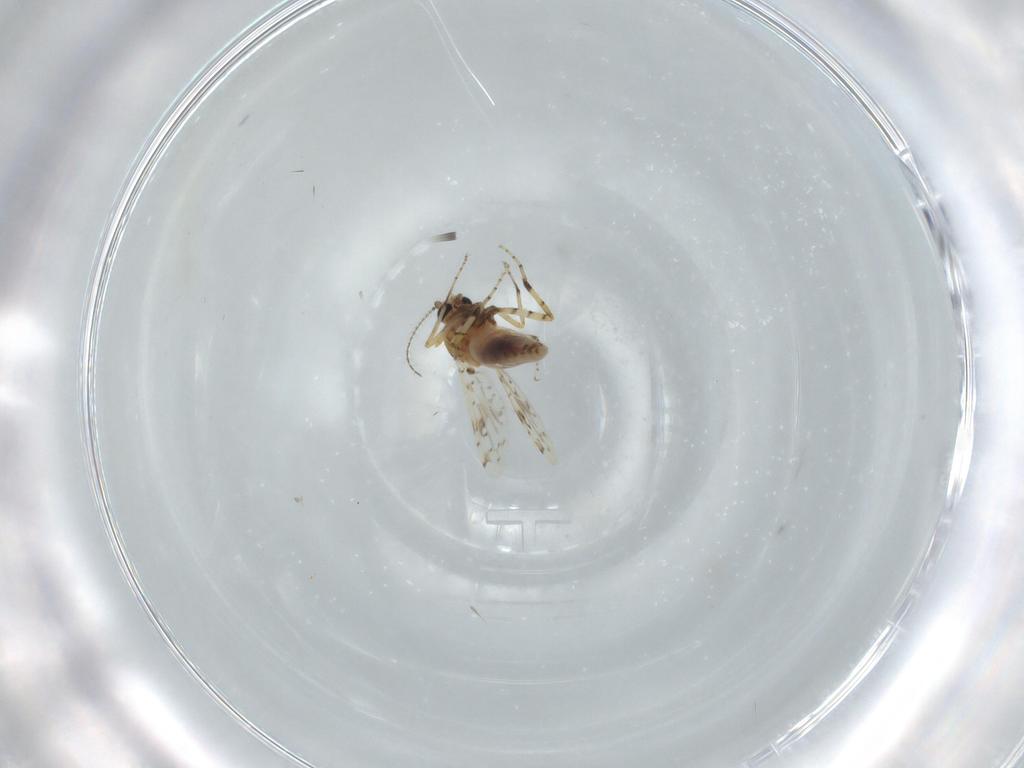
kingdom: Animalia
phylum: Arthropoda
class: Insecta
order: Diptera
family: Ceratopogonidae
